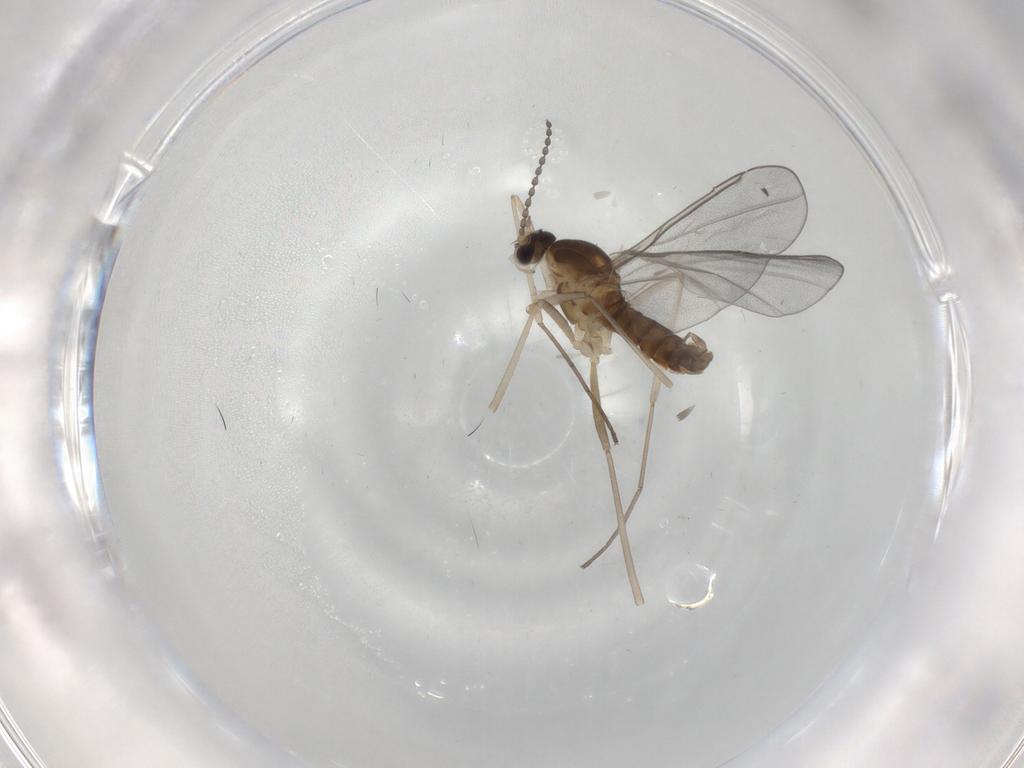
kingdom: Animalia
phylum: Arthropoda
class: Insecta
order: Diptera
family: Cecidomyiidae
